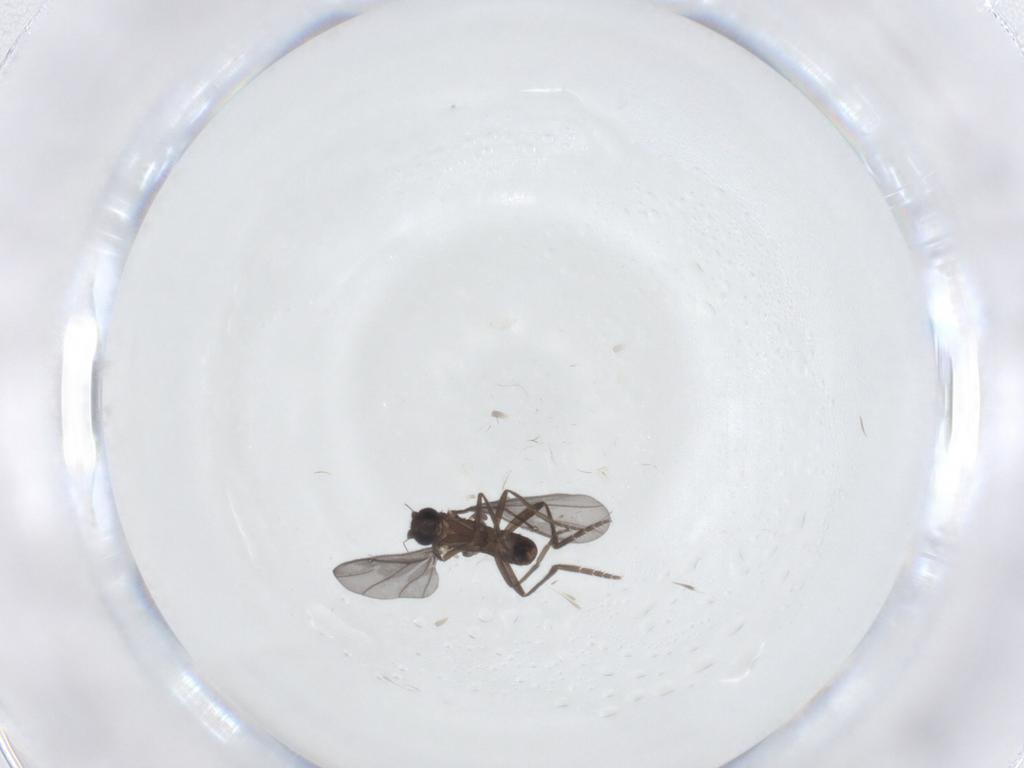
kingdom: Animalia
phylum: Arthropoda
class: Insecta
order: Diptera
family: Phoridae
